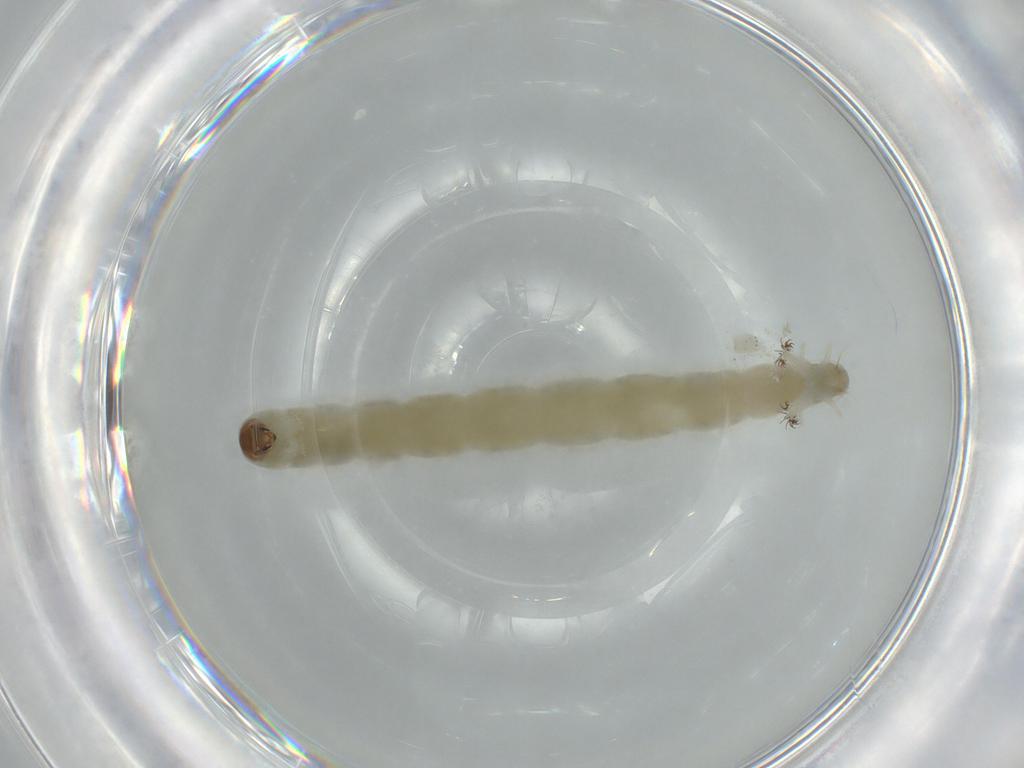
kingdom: Animalia
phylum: Arthropoda
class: Insecta
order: Diptera
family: Chironomidae
